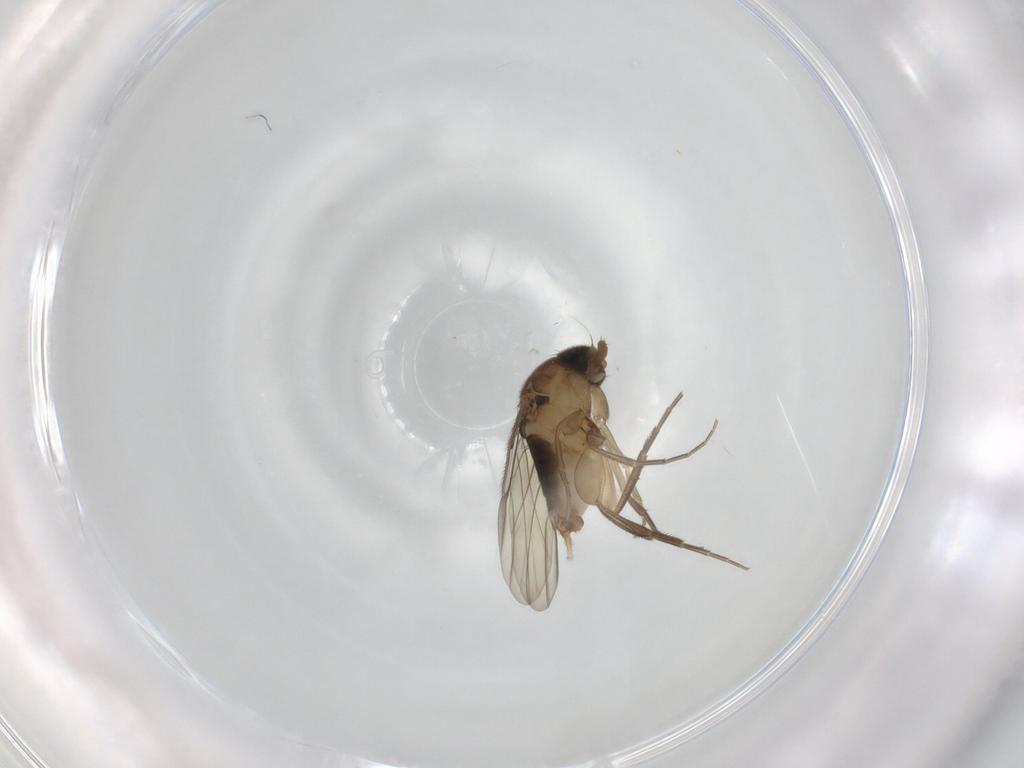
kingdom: Animalia
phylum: Arthropoda
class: Insecta
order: Diptera
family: Phoridae
